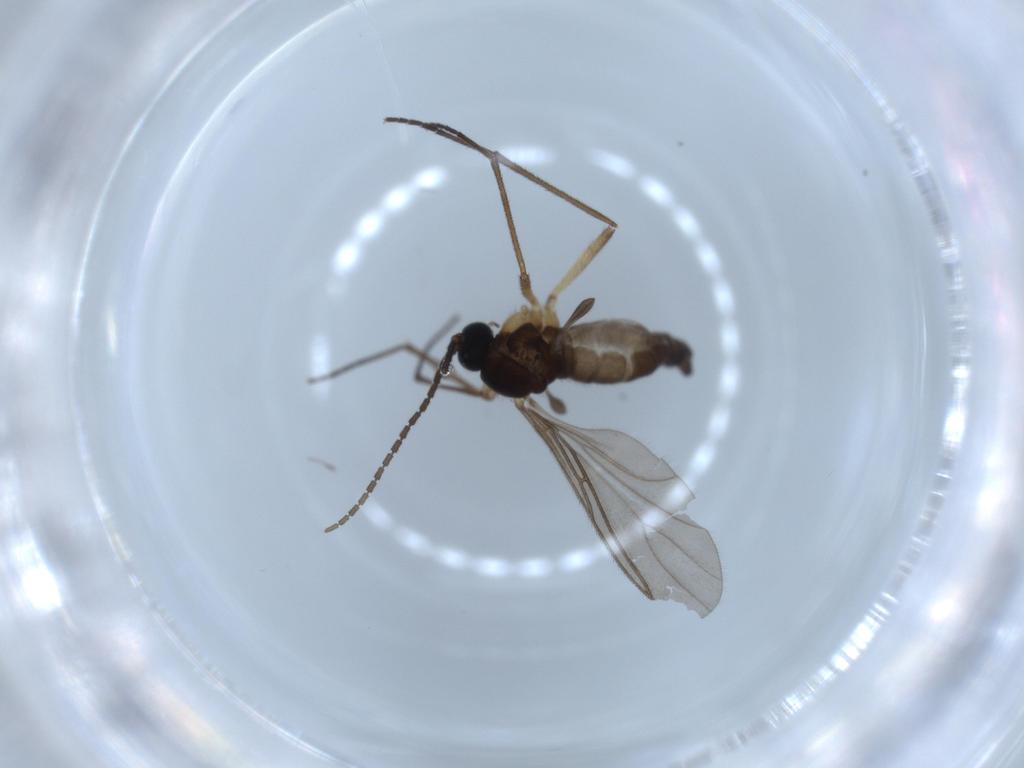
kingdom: Animalia
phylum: Arthropoda
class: Insecta
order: Diptera
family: Sciaridae
